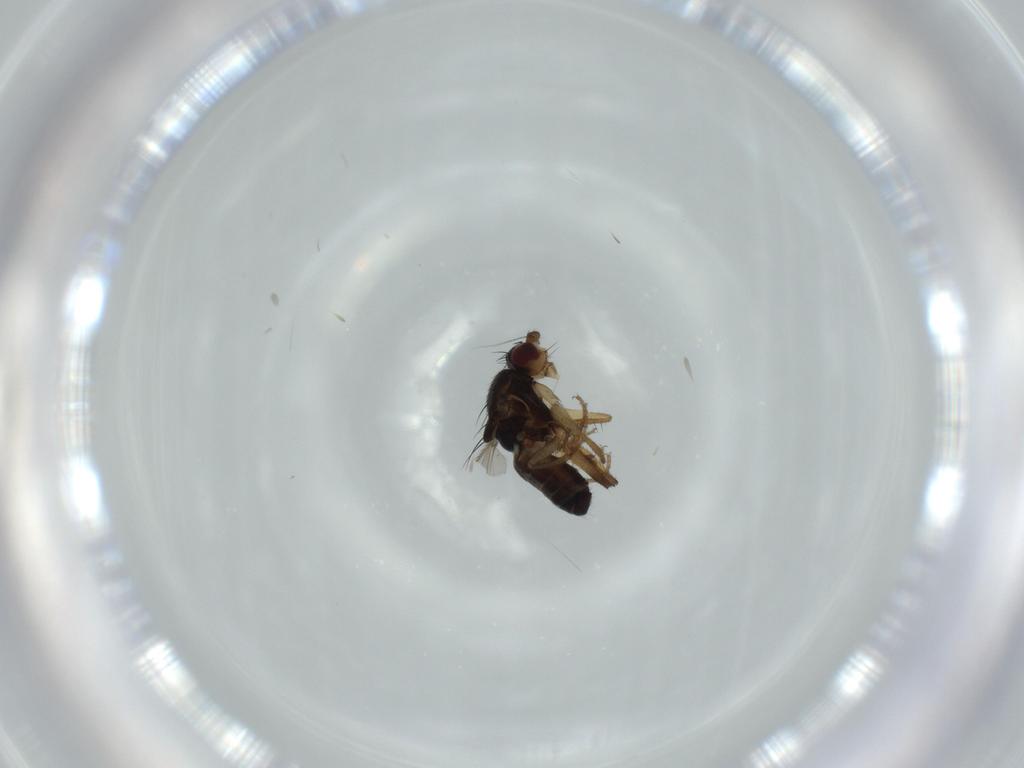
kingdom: Animalia
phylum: Arthropoda
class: Insecta
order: Diptera
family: Sphaeroceridae
